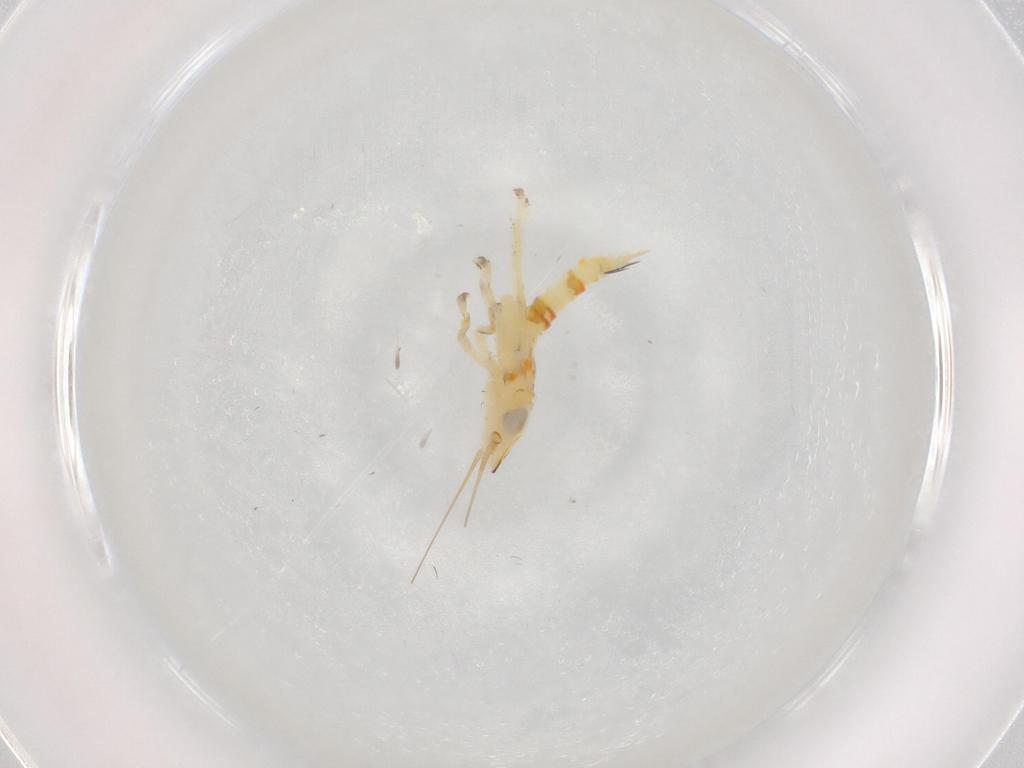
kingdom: Animalia
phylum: Arthropoda
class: Insecta
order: Hemiptera
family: Cicadellidae
